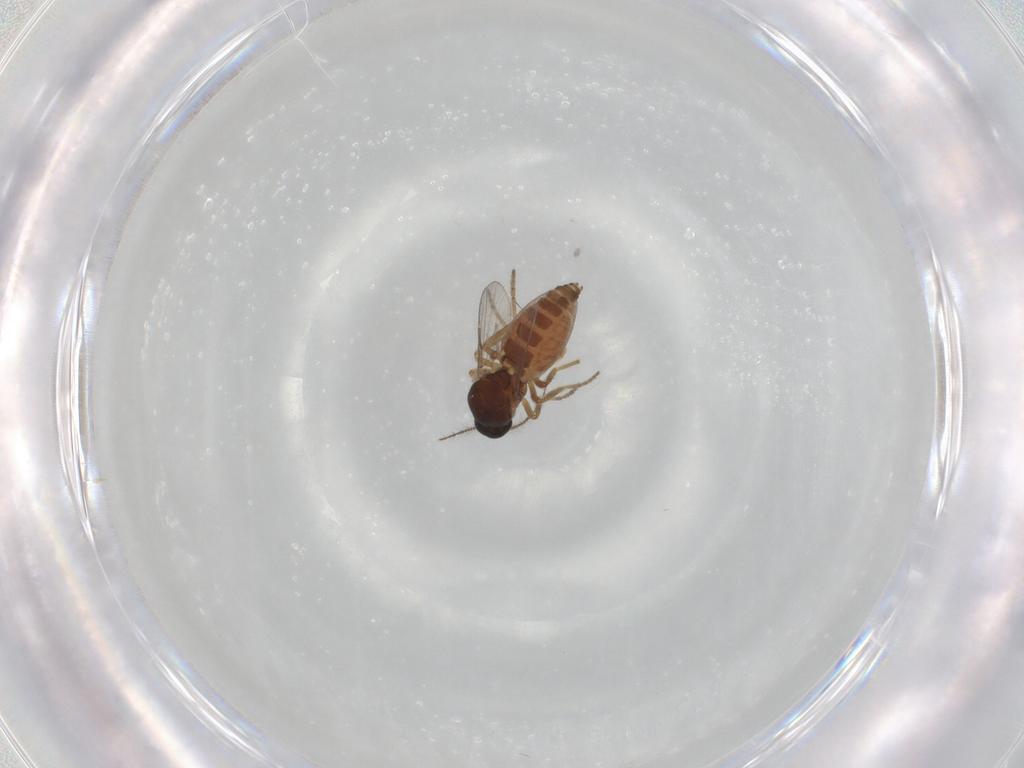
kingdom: Animalia
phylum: Arthropoda
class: Insecta
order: Diptera
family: Ceratopogonidae
